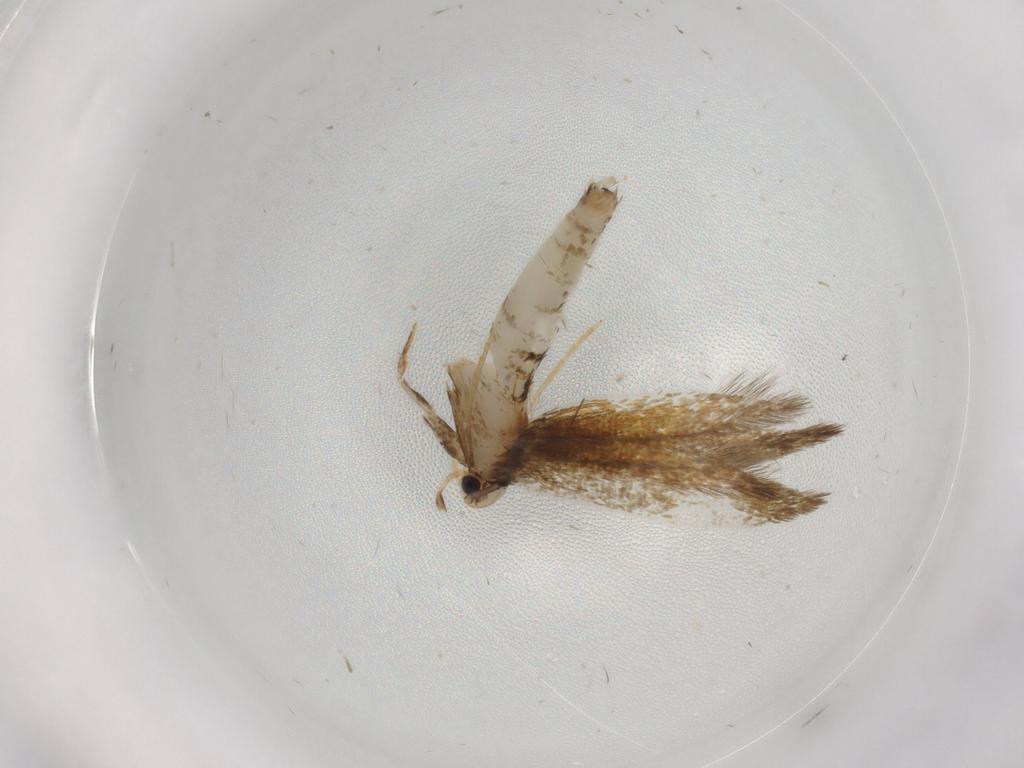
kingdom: Animalia
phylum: Arthropoda
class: Insecta
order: Lepidoptera
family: Tineidae
